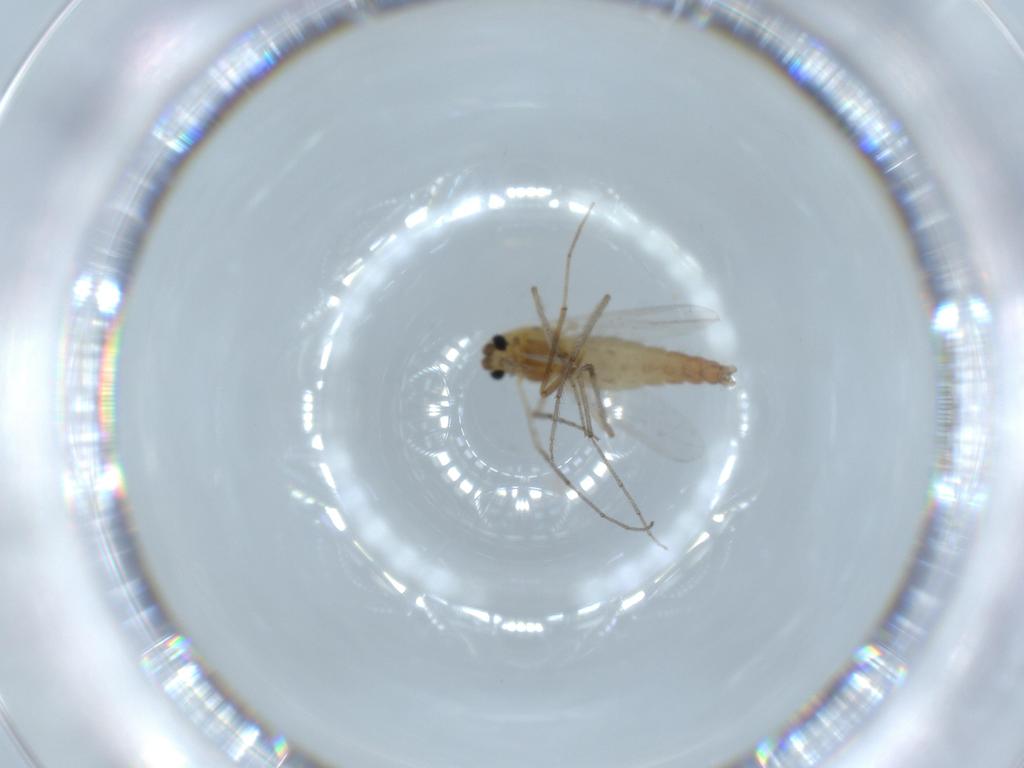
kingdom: Animalia
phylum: Arthropoda
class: Insecta
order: Diptera
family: Chironomidae
